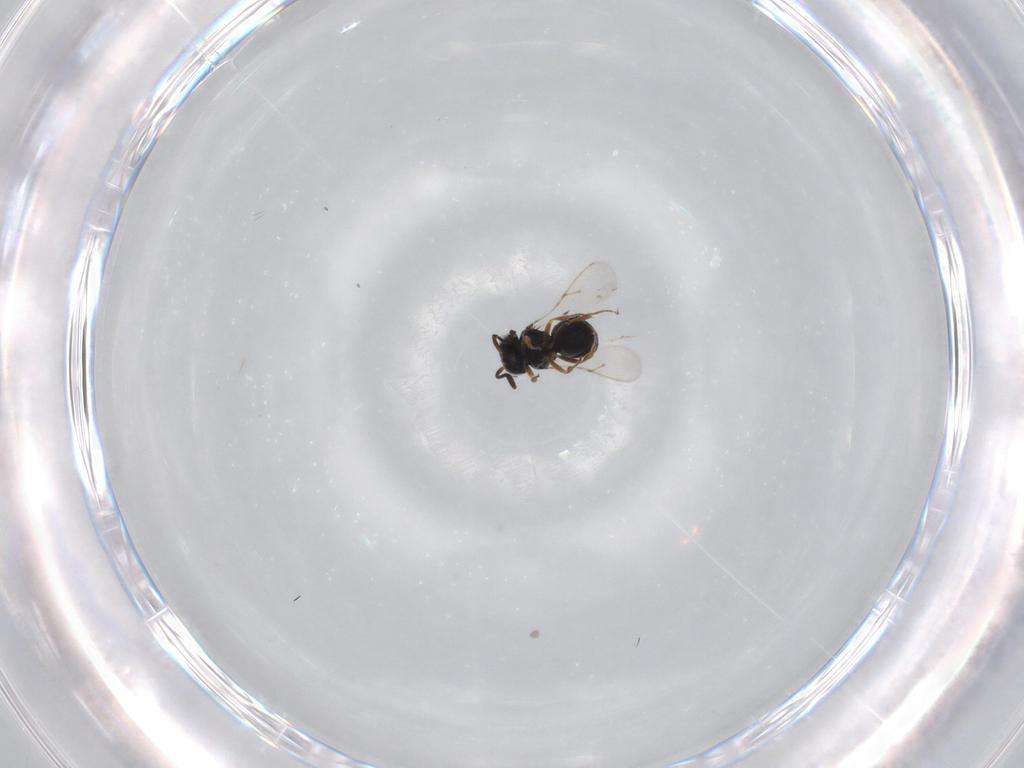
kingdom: Animalia
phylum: Arthropoda
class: Insecta
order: Hymenoptera
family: Scelionidae
